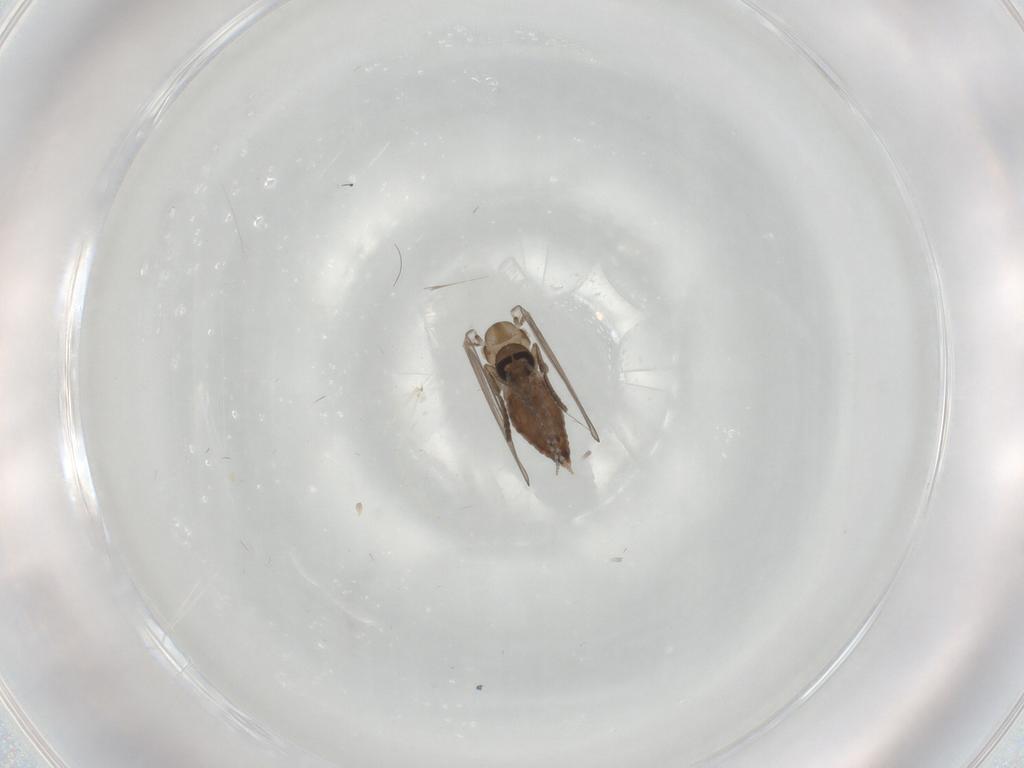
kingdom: Animalia
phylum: Arthropoda
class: Insecta
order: Diptera
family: Psychodidae
